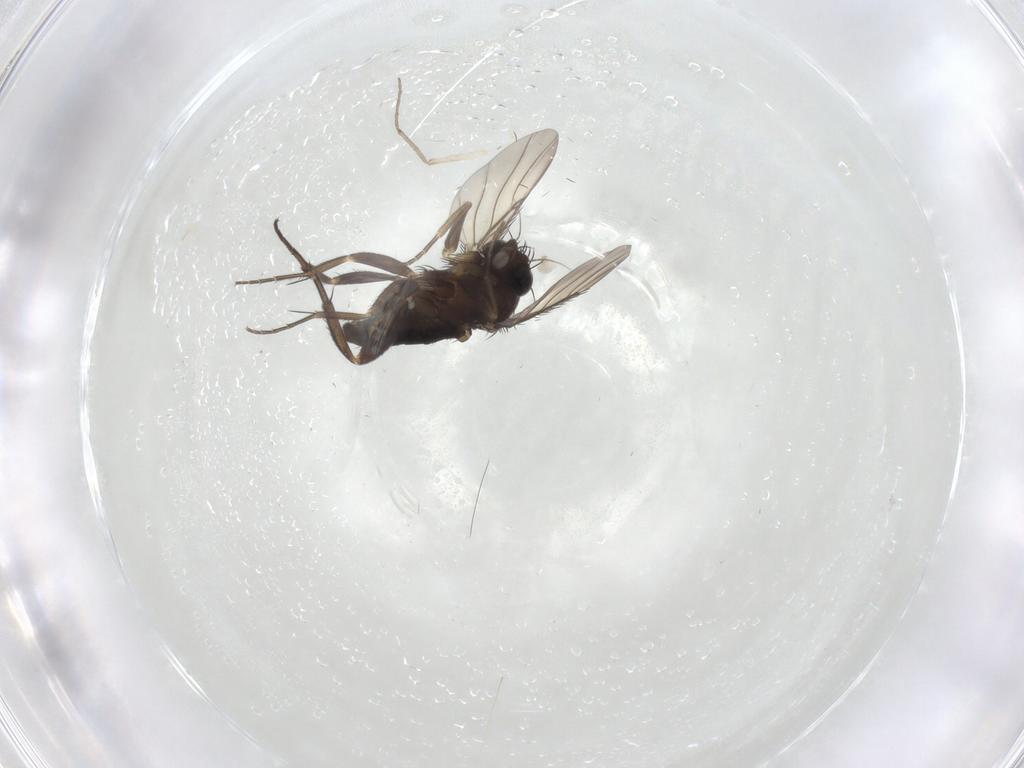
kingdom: Animalia
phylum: Arthropoda
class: Insecta
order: Diptera
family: Phoridae
